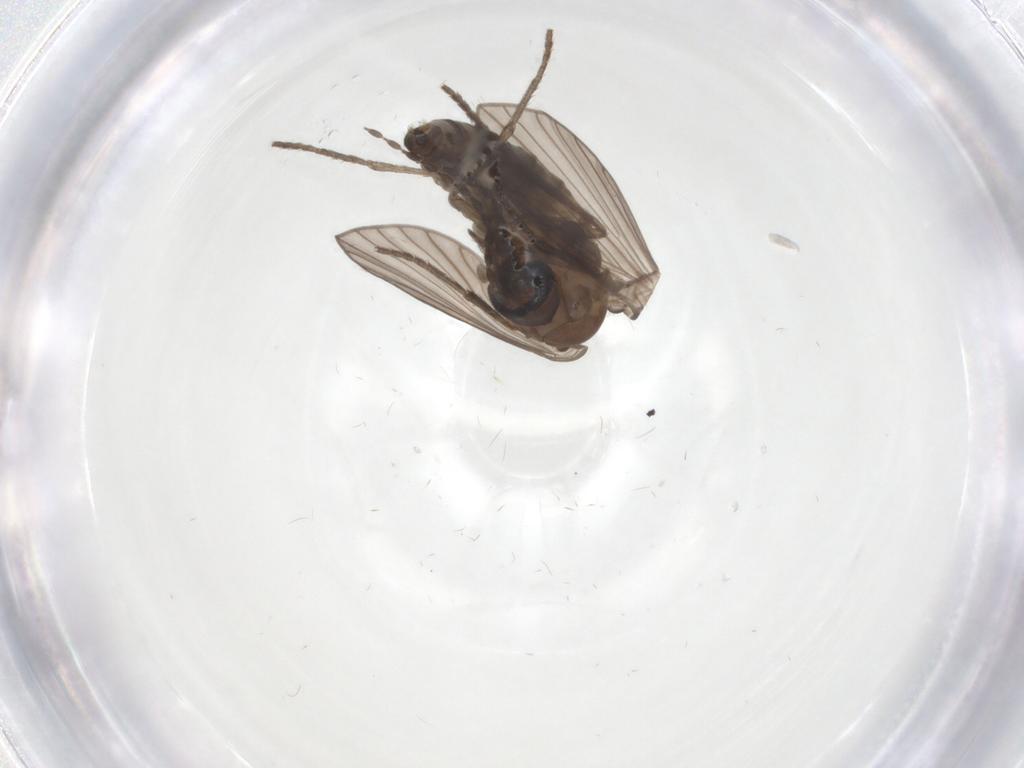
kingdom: Animalia
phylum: Arthropoda
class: Insecta
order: Diptera
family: Psychodidae
